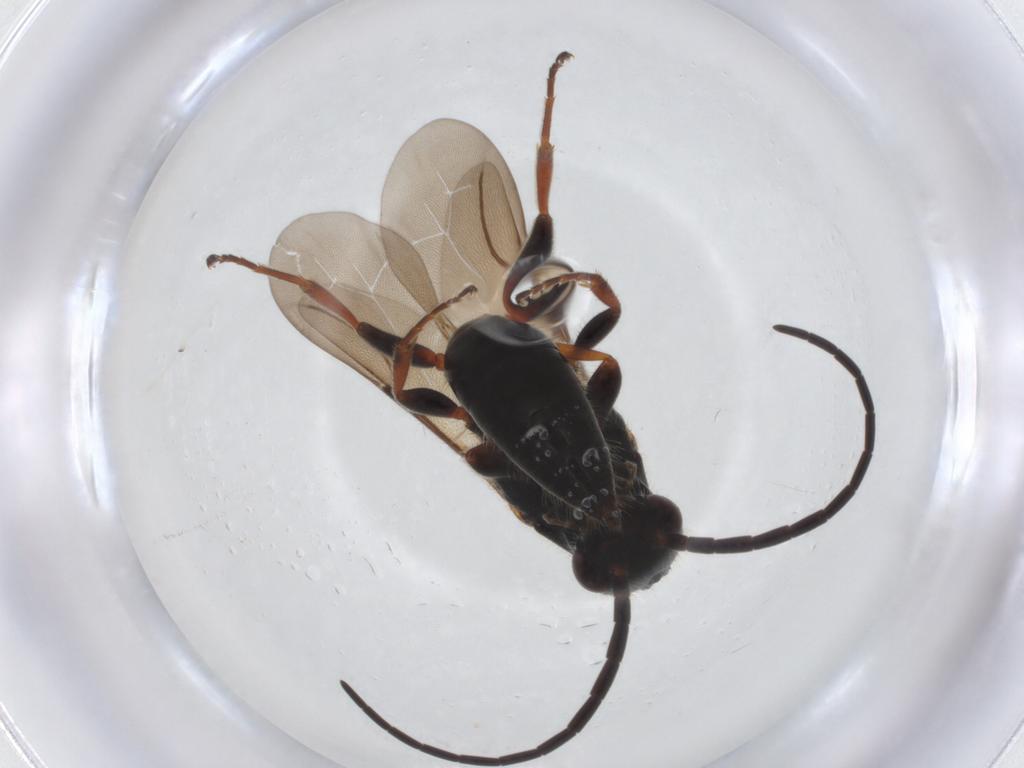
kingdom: Animalia
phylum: Arthropoda
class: Insecta
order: Hymenoptera
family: Bethylidae
